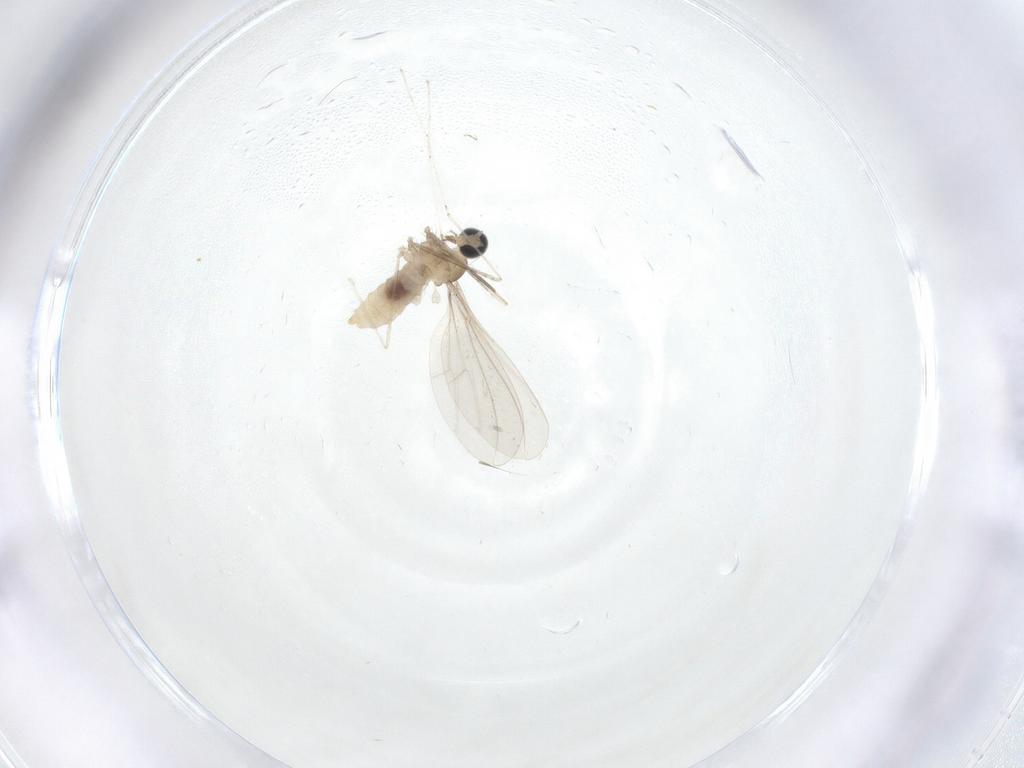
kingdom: Animalia
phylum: Arthropoda
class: Insecta
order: Diptera
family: Cecidomyiidae
